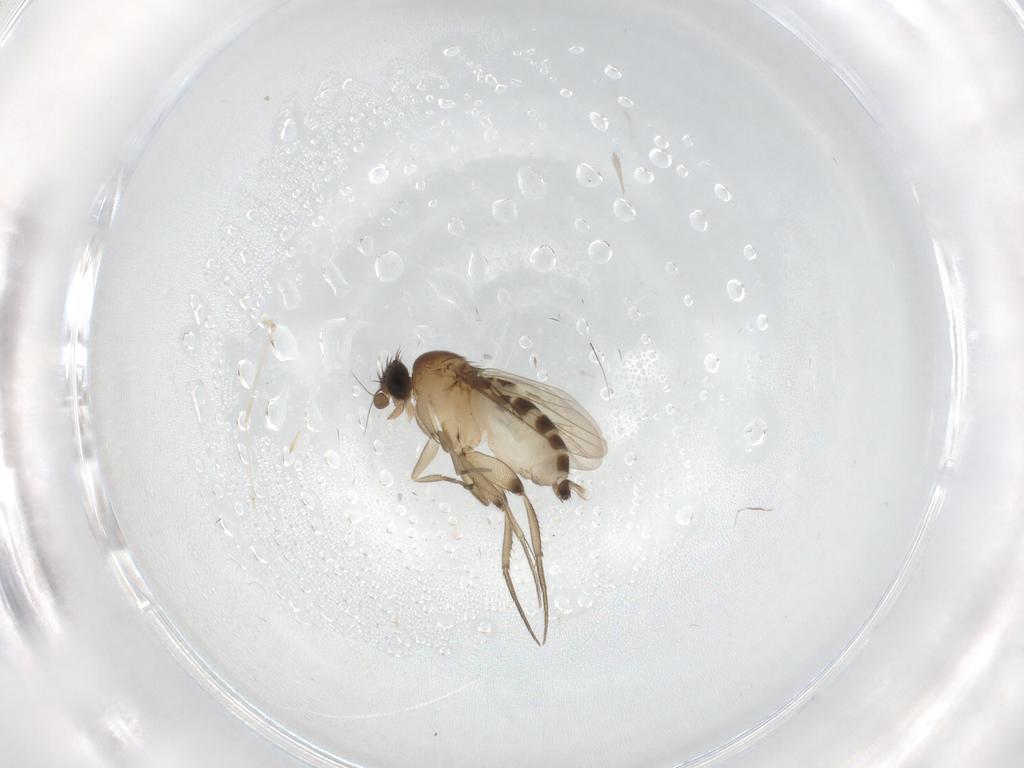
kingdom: Animalia
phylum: Arthropoda
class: Insecta
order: Diptera
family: Phoridae
